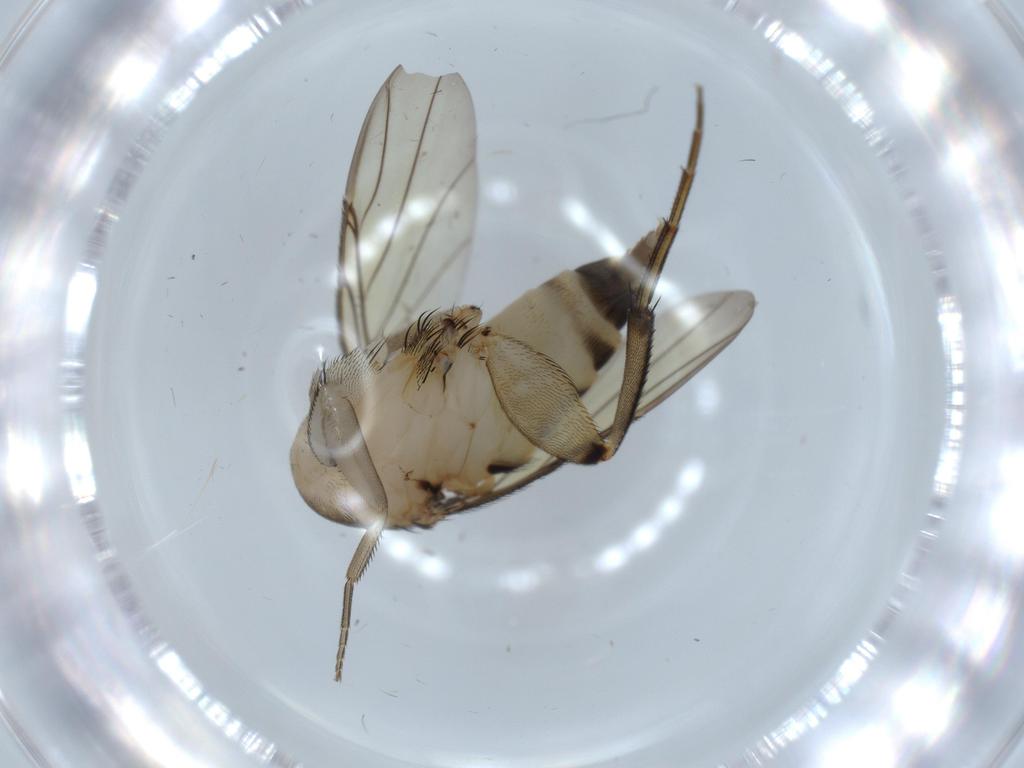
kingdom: Animalia
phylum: Arthropoda
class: Insecta
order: Diptera
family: Phoridae
